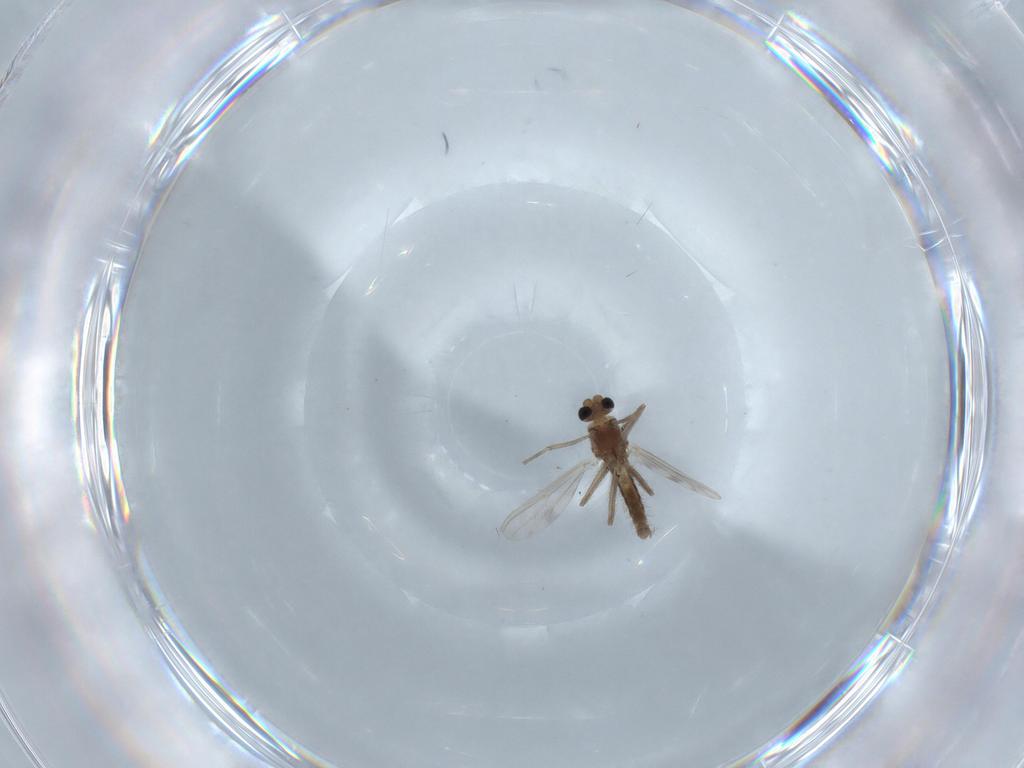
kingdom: Animalia
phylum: Arthropoda
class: Insecta
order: Diptera
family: Chironomidae
